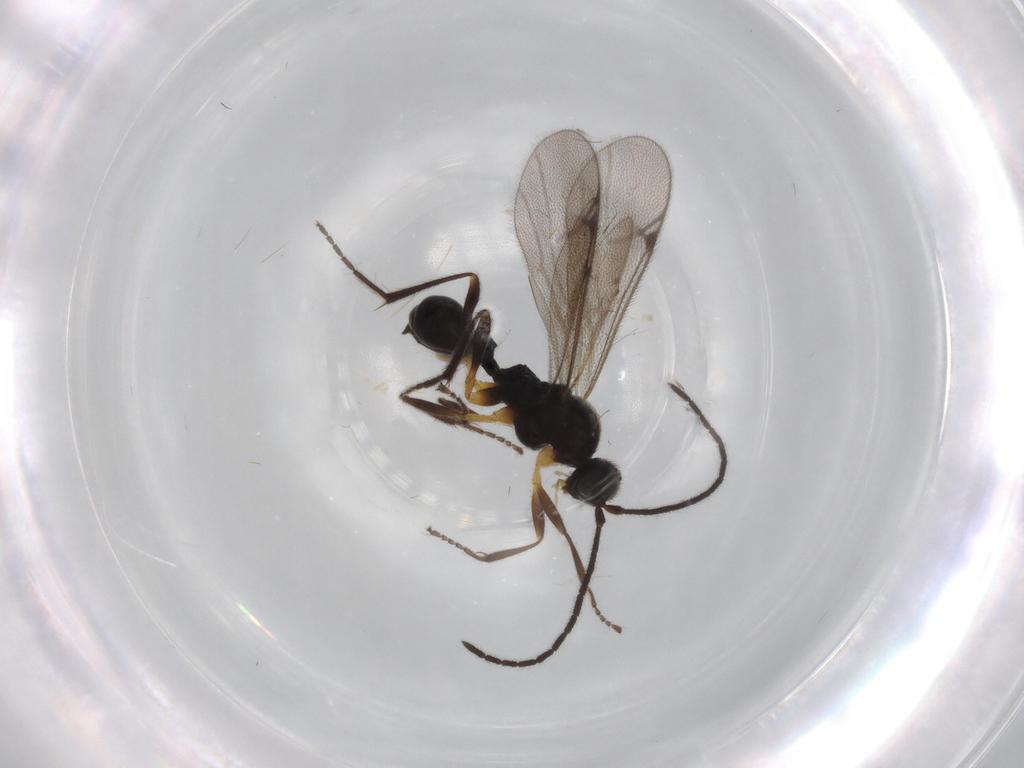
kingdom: Animalia
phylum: Arthropoda
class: Insecta
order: Hymenoptera
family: Proctotrupidae
